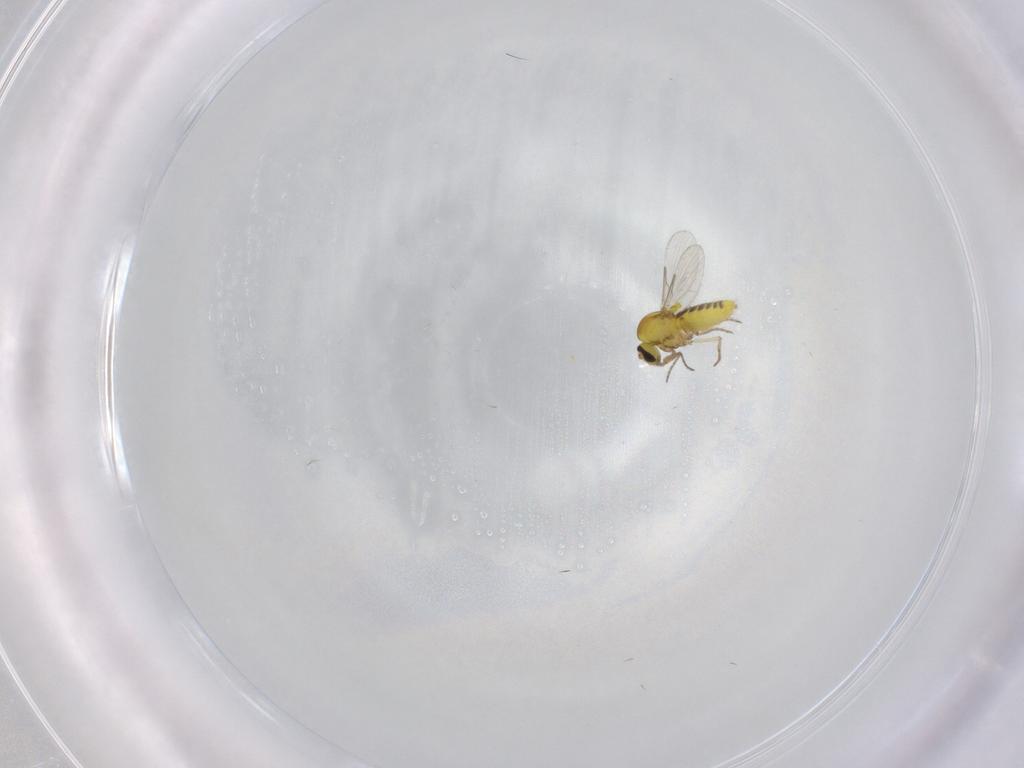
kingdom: Animalia
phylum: Arthropoda
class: Insecta
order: Diptera
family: Ceratopogonidae
